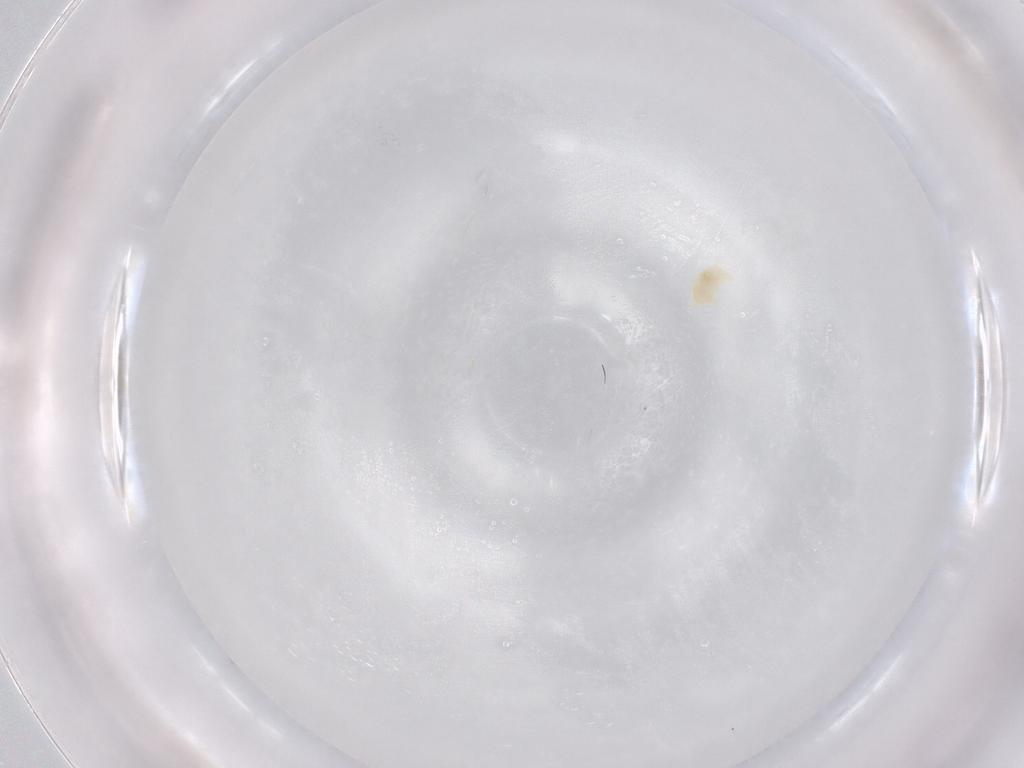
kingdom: Animalia
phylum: Arthropoda
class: Arachnida
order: Trombidiformes
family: Eupodidae
